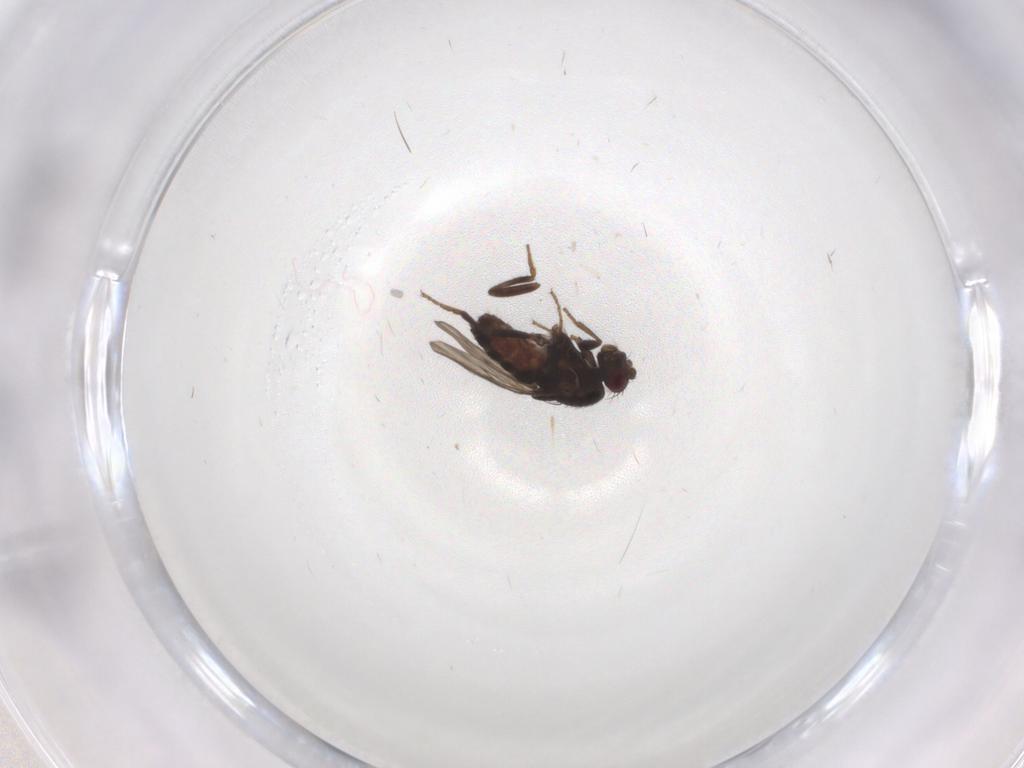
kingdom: Animalia
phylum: Arthropoda
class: Insecta
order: Diptera
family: Sphaeroceridae
